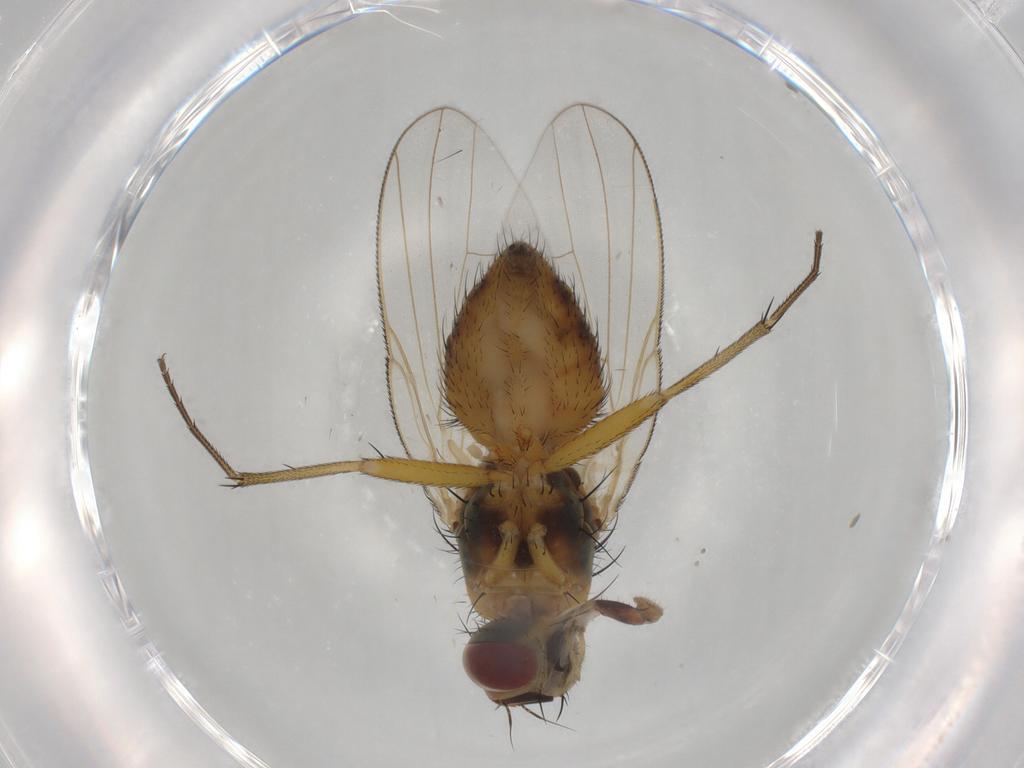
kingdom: Animalia
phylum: Arthropoda
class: Insecta
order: Diptera
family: Muscidae
